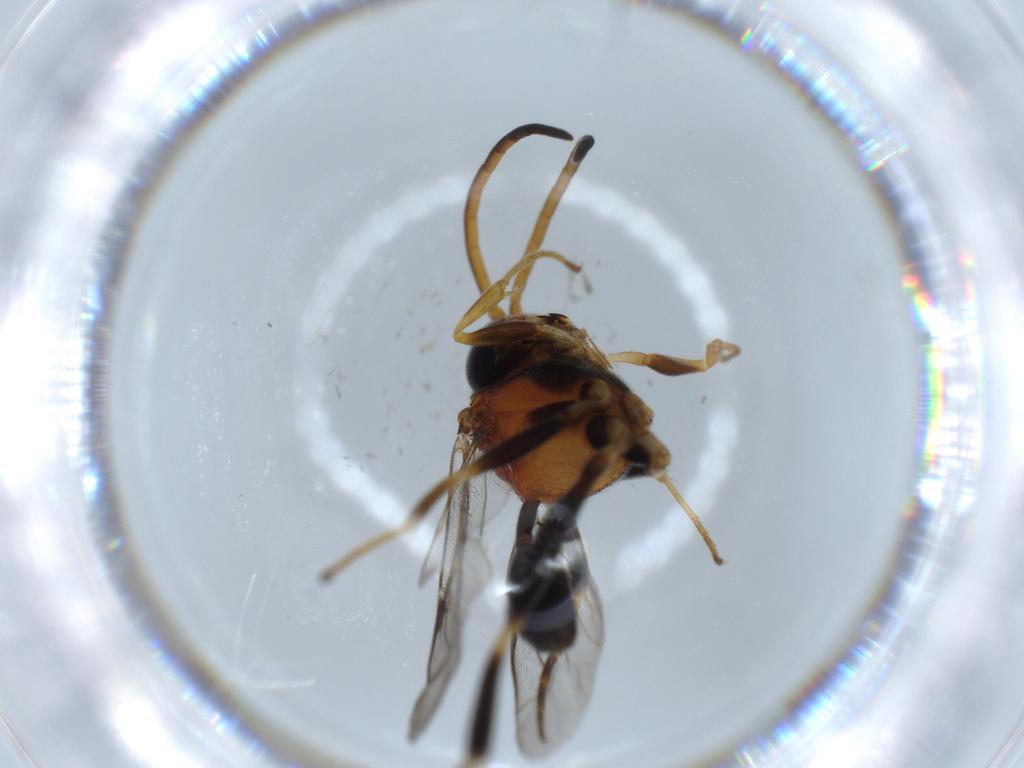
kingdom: Animalia
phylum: Arthropoda
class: Insecta
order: Hymenoptera
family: Evaniidae
